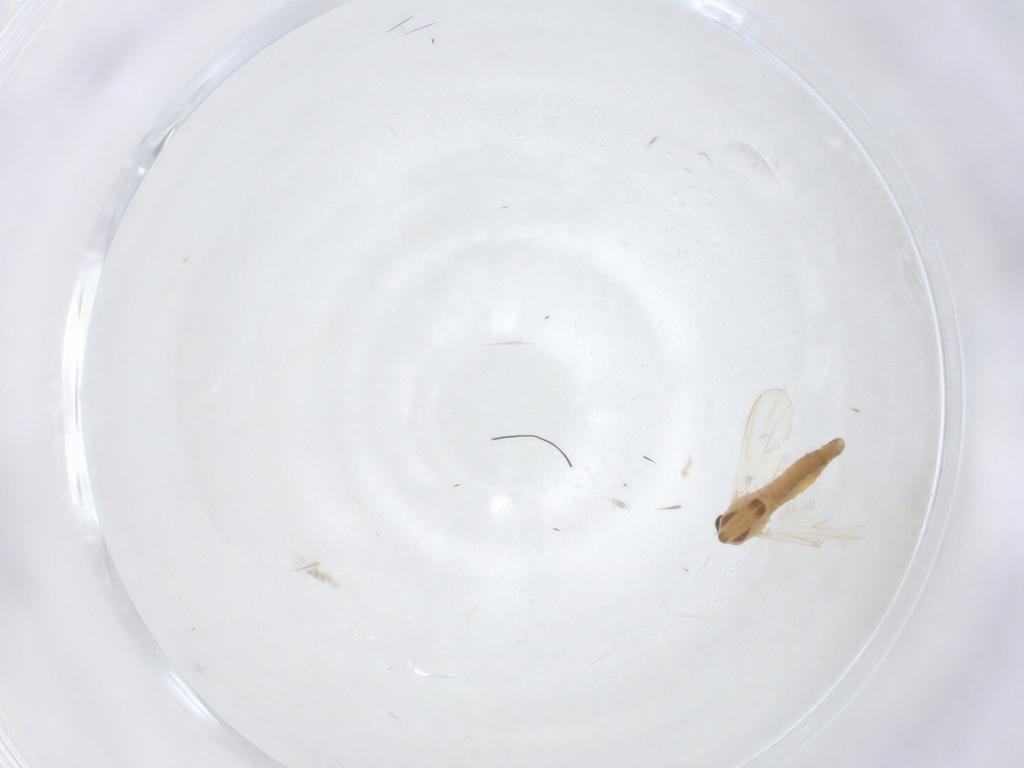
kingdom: Animalia
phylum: Arthropoda
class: Insecta
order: Diptera
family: Chironomidae
